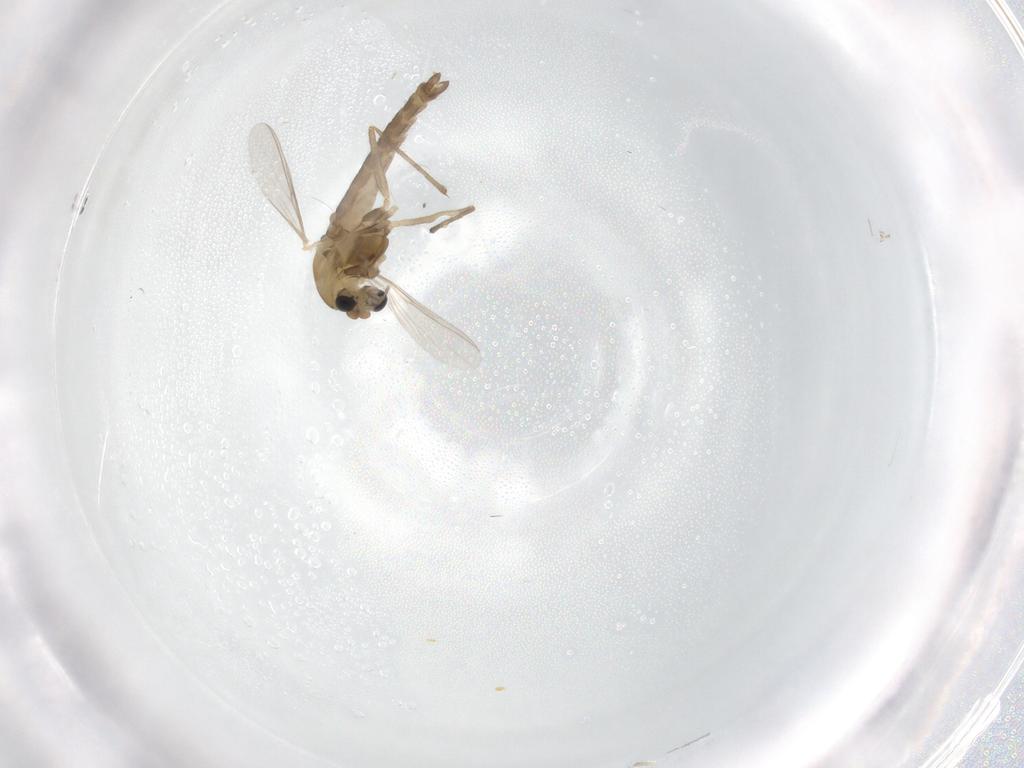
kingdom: Animalia
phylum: Arthropoda
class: Insecta
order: Diptera
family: Chironomidae
